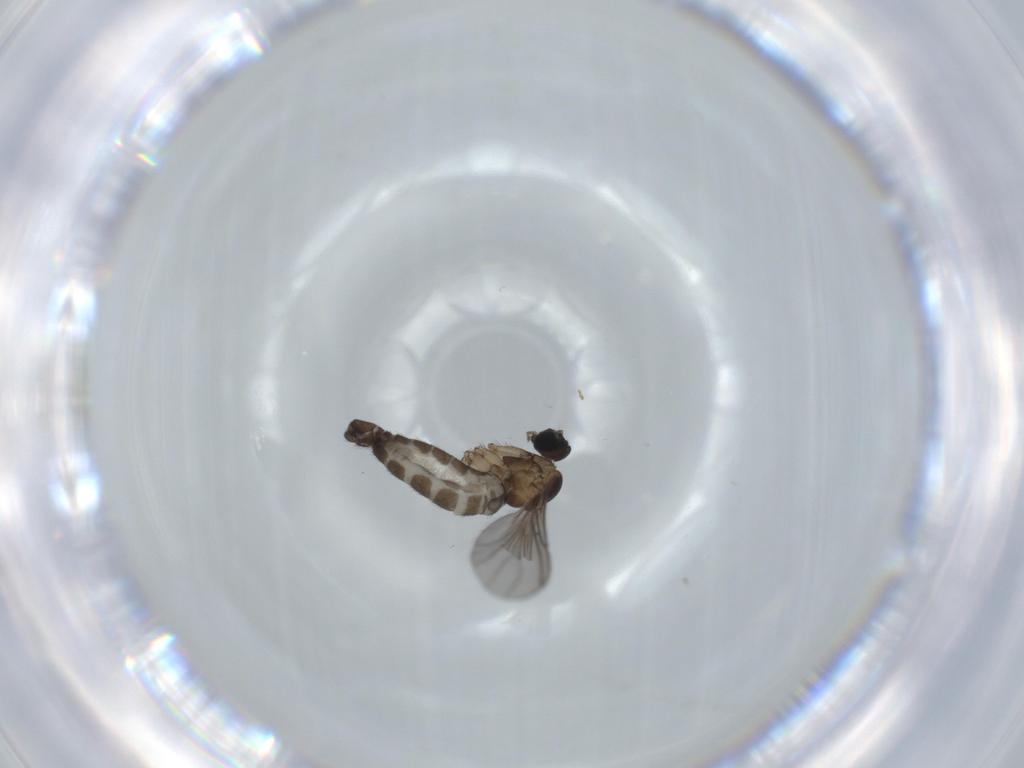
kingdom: Animalia
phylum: Arthropoda
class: Insecta
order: Diptera
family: Sciaridae
